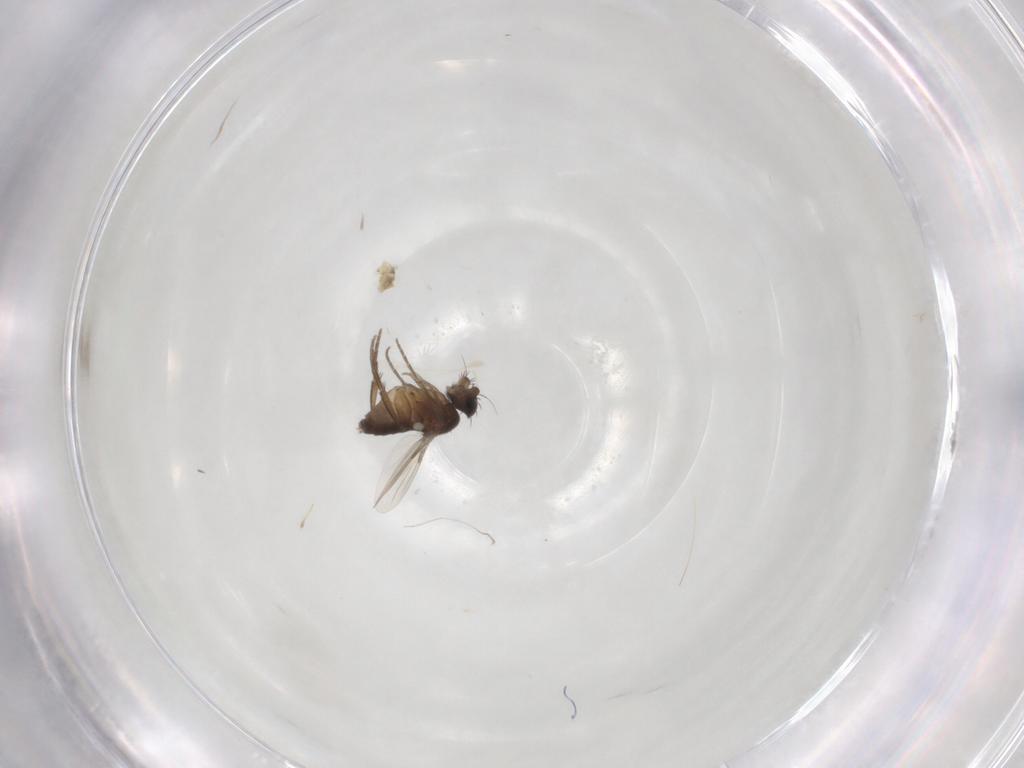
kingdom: Animalia
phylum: Arthropoda
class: Insecta
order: Diptera
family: Phoridae
